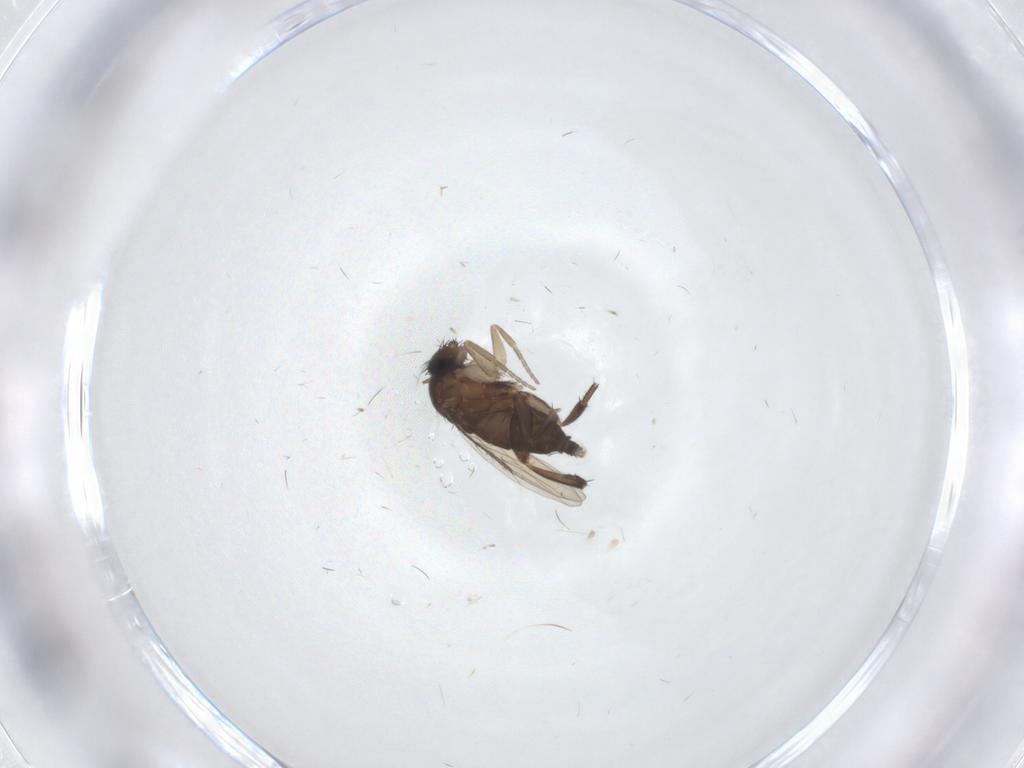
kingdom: Animalia
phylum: Arthropoda
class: Insecta
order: Diptera
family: Phoridae
